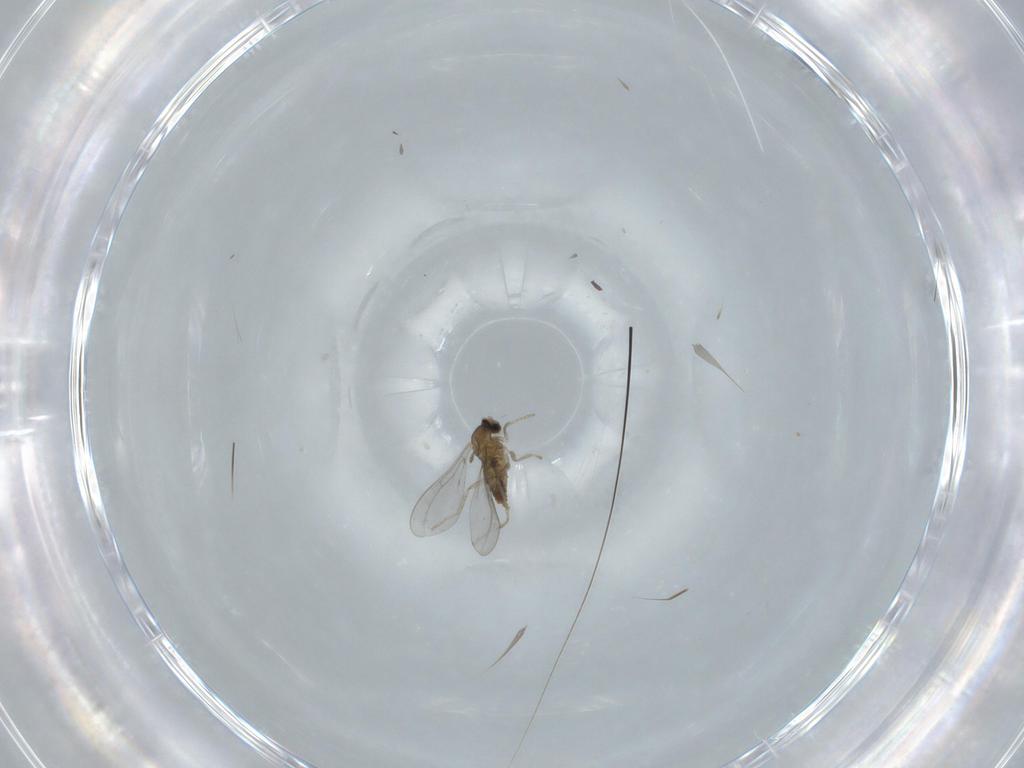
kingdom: Animalia
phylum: Arthropoda
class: Insecta
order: Diptera
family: Cecidomyiidae
